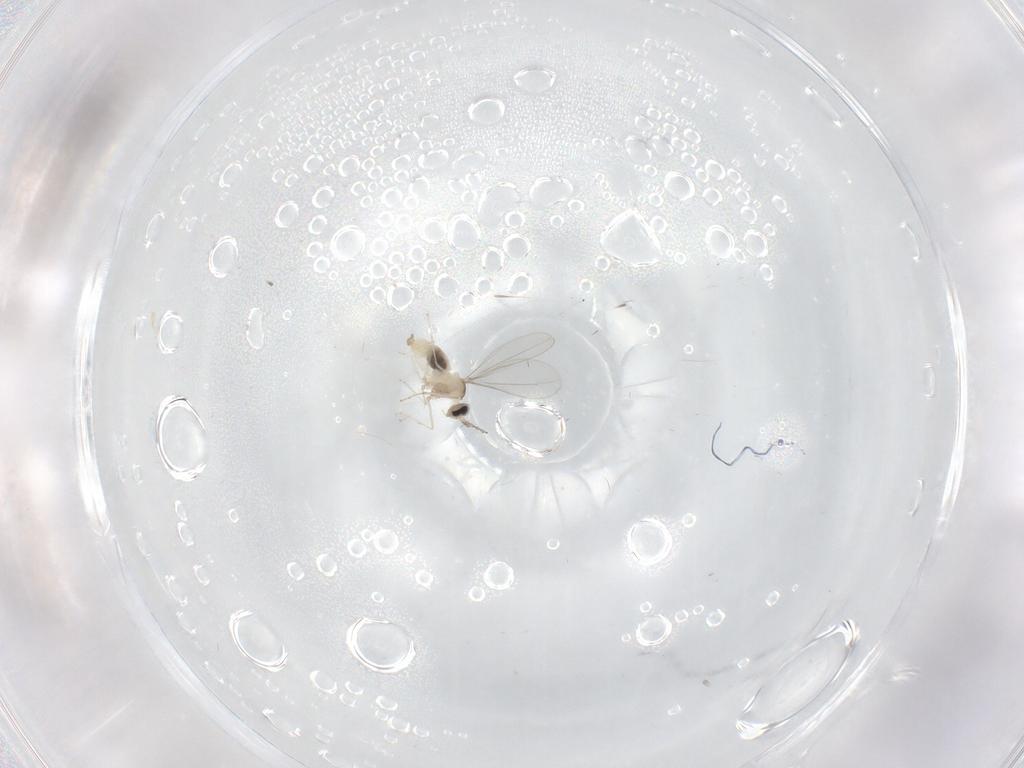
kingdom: Animalia
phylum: Arthropoda
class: Insecta
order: Diptera
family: Cecidomyiidae
